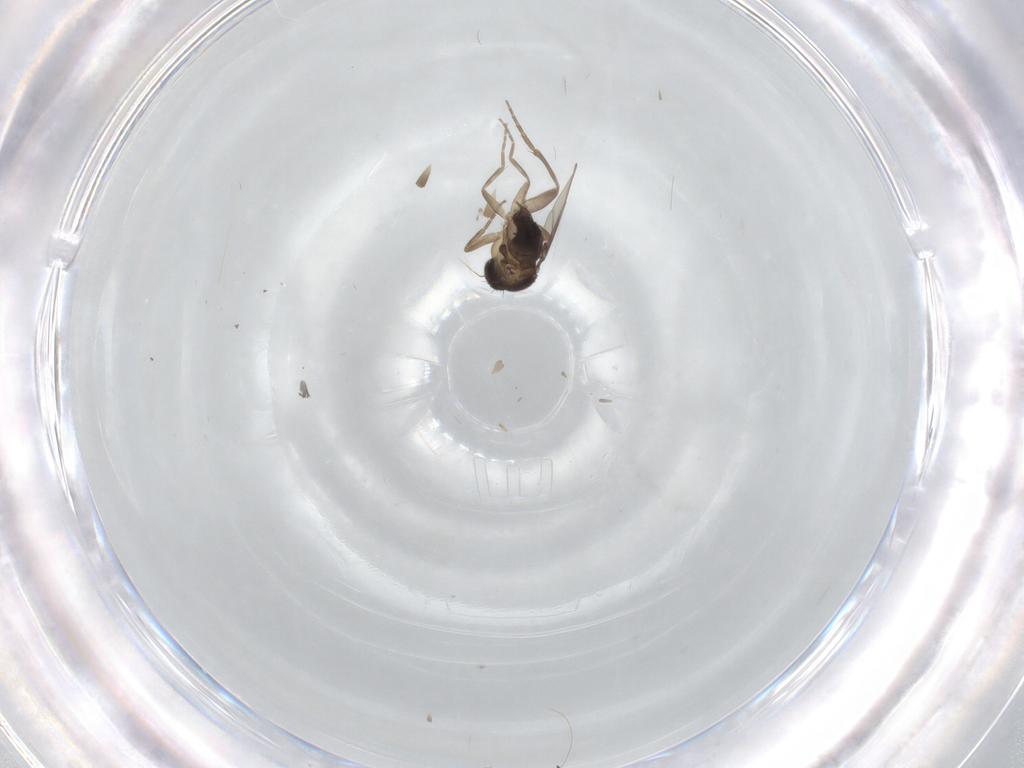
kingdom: Animalia
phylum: Arthropoda
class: Insecta
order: Diptera
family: Phoridae
